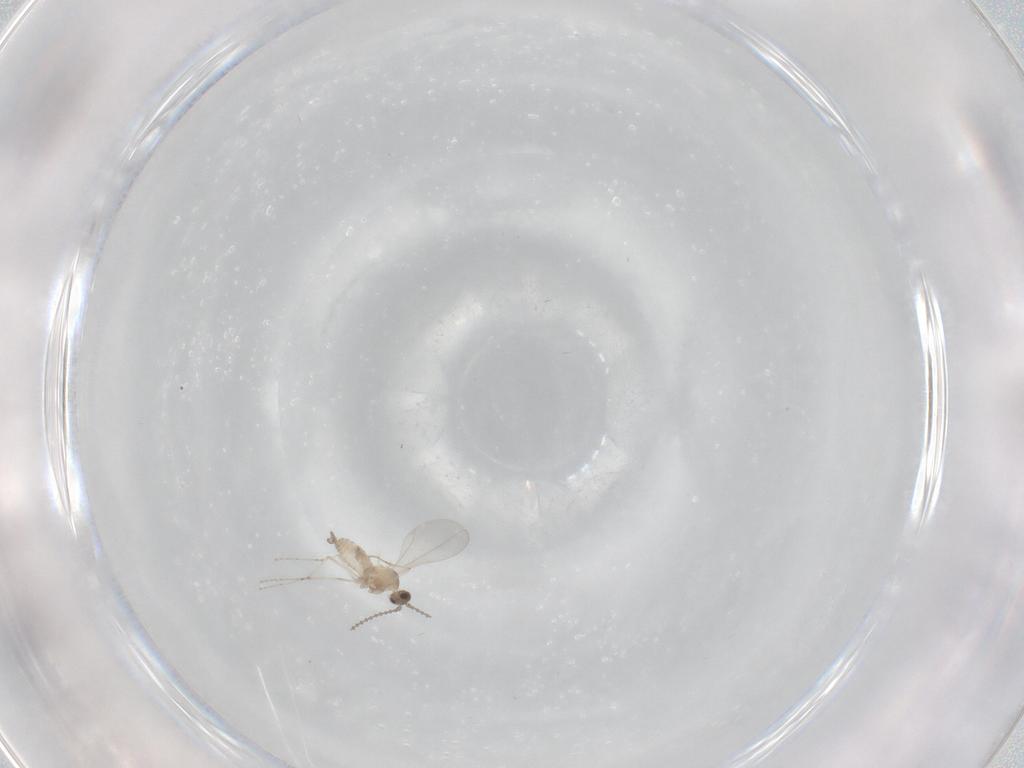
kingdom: Animalia
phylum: Arthropoda
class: Insecta
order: Diptera
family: Cecidomyiidae
